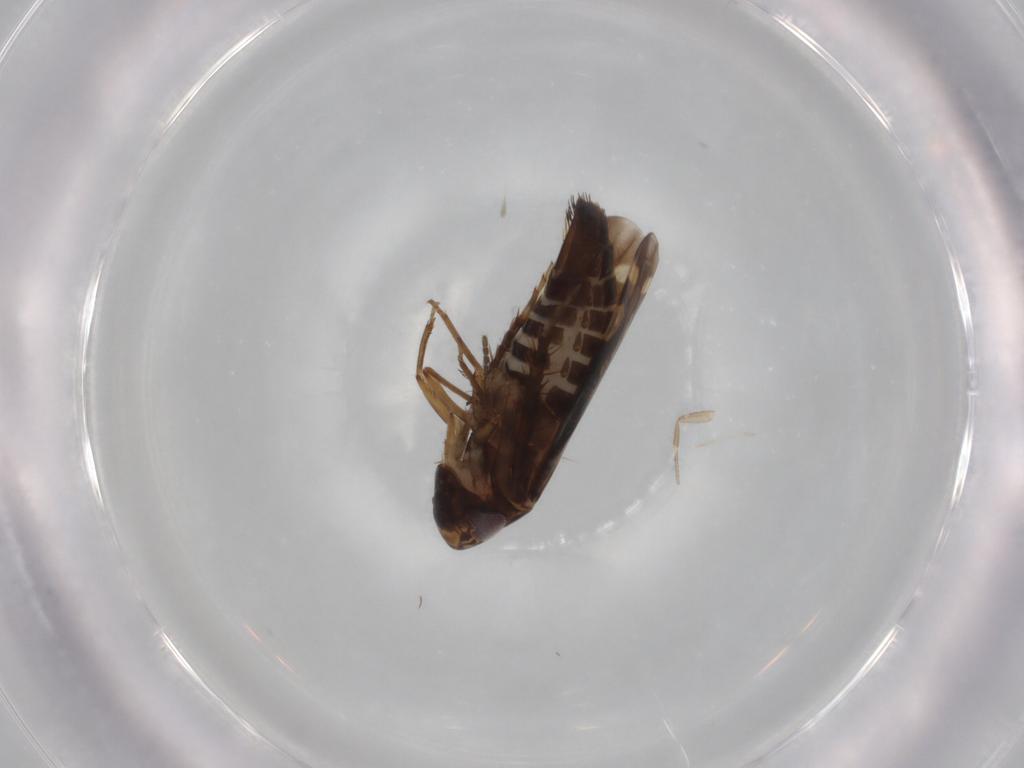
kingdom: Animalia
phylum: Arthropoda
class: Insecta
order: Hemiptera
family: Cicadellidae
